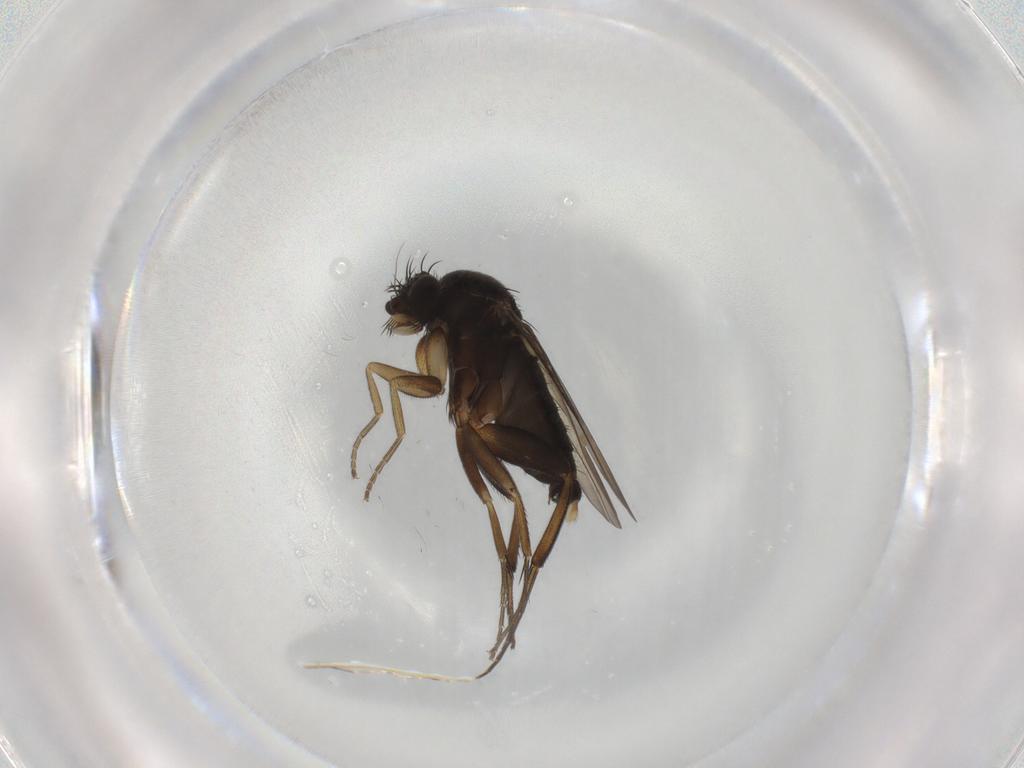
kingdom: Animalia
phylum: Arthropoda
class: Insecta
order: Diptera
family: Phoridae
